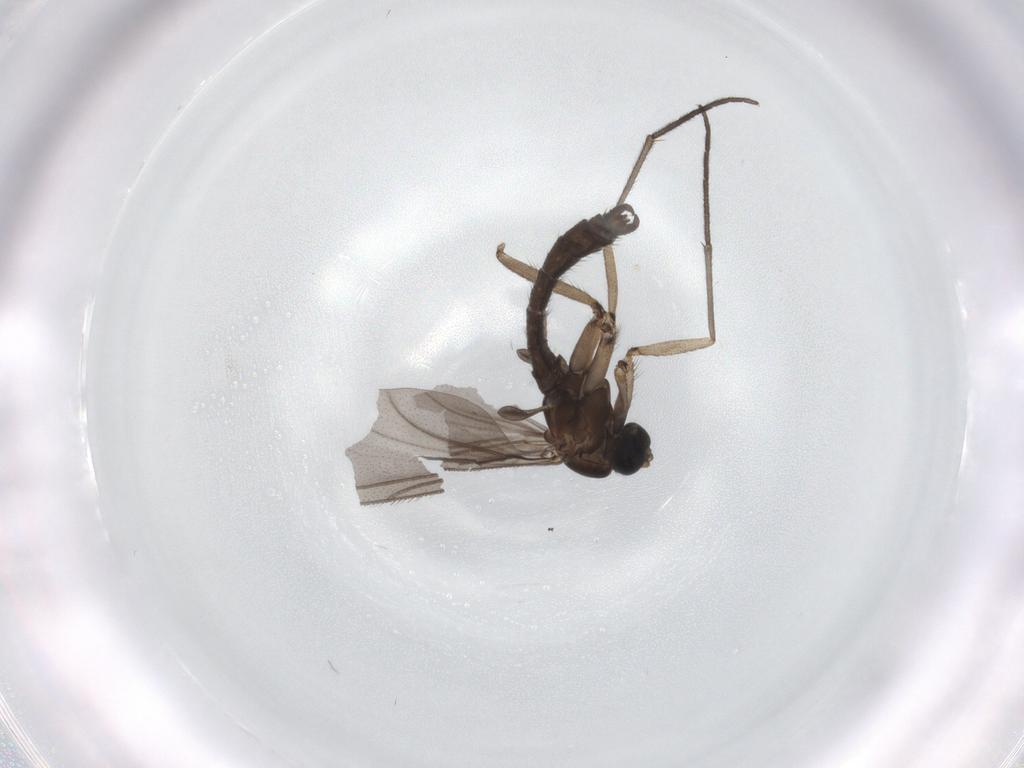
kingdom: Animalia
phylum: Arthropoda
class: Insecta
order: Diptera
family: Sciaridae
